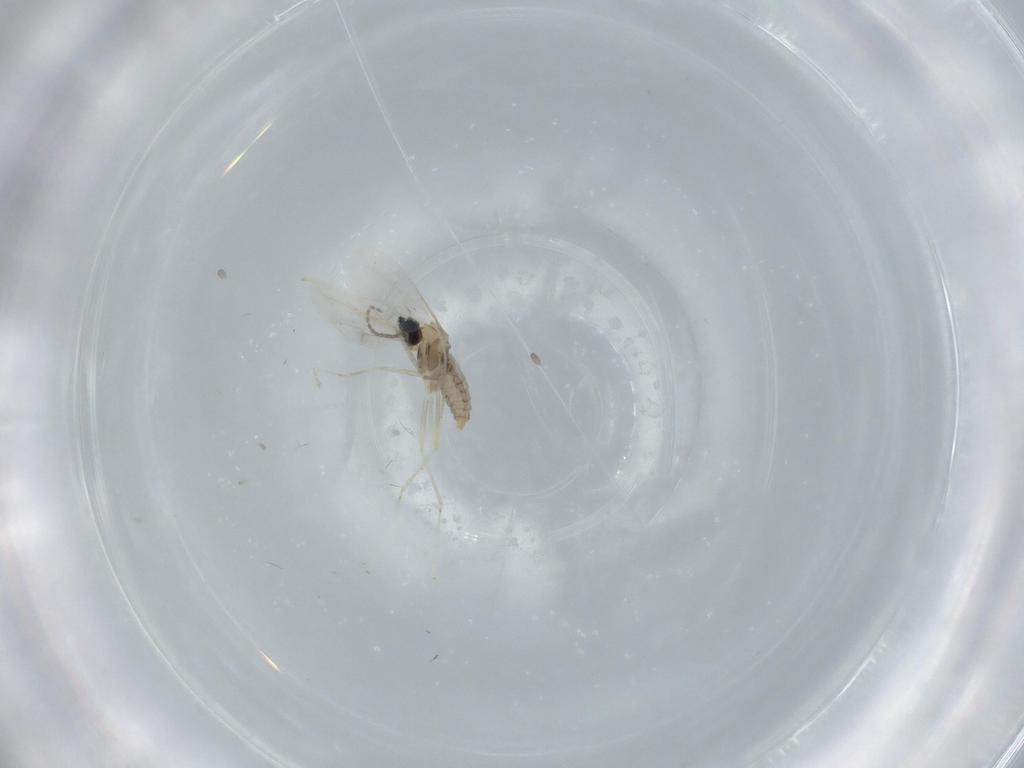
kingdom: Animalia
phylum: Arthropoda
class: Insecta
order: Diptera
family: Cecidomyiidae
